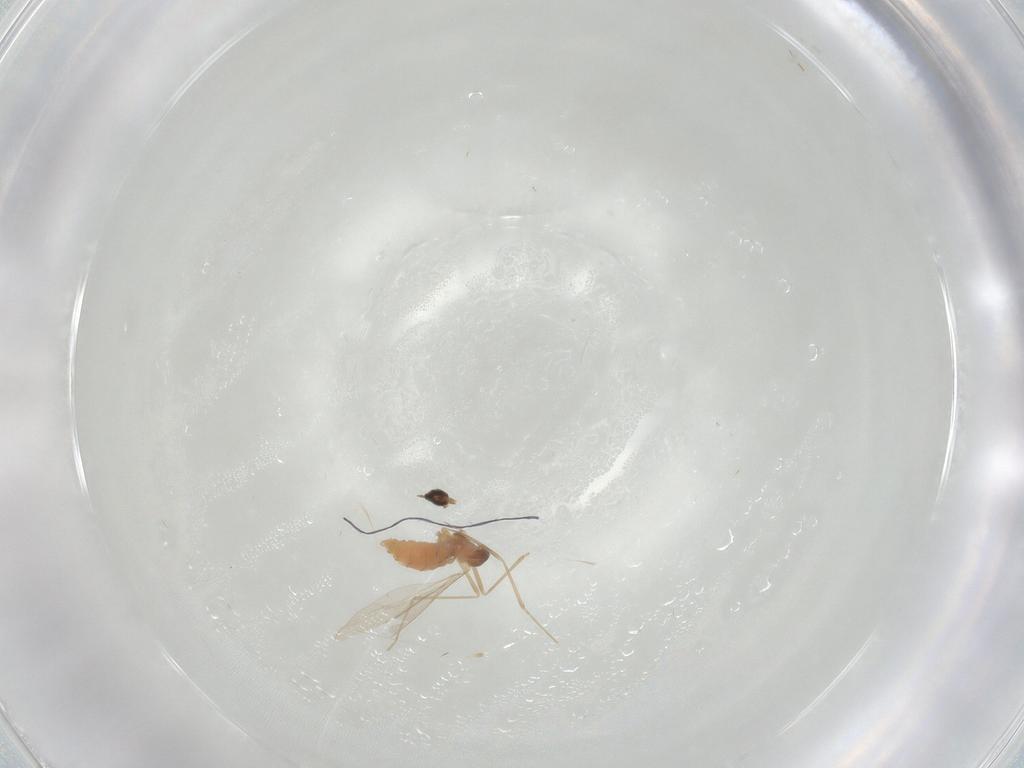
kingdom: Animalia
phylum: Arthropoda
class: Insecta
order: Diptera
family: Cecidomyiidae
